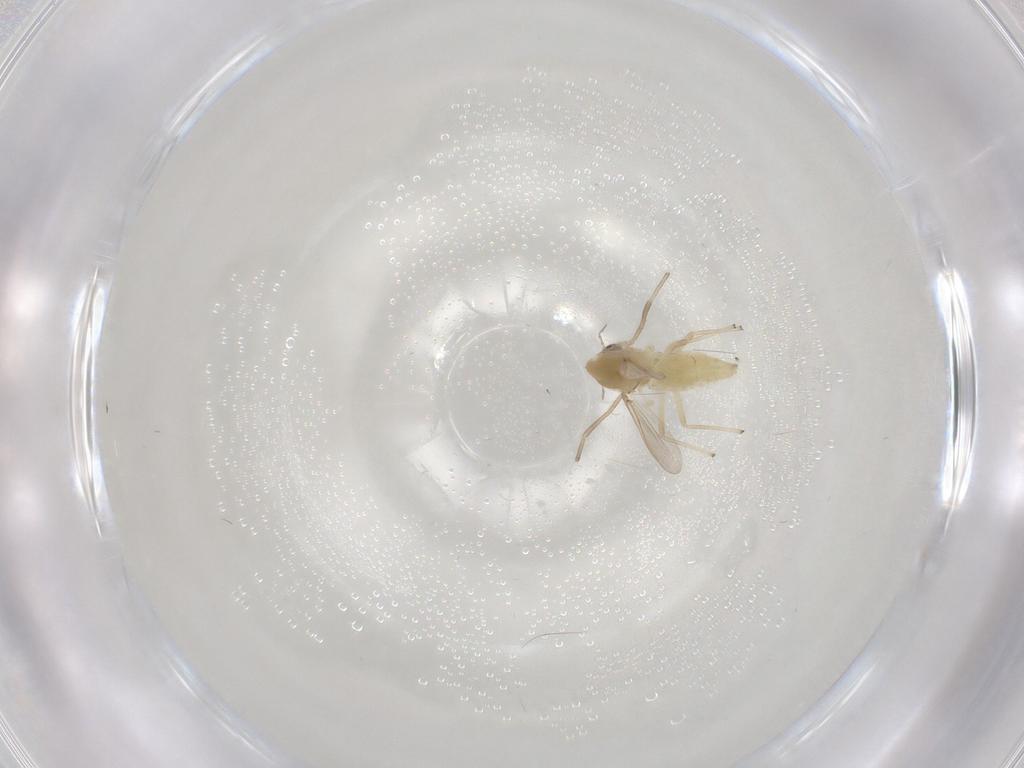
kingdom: Animalia
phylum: Arthropoda
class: Insecta
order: Diptera
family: Sphaeroceridae
